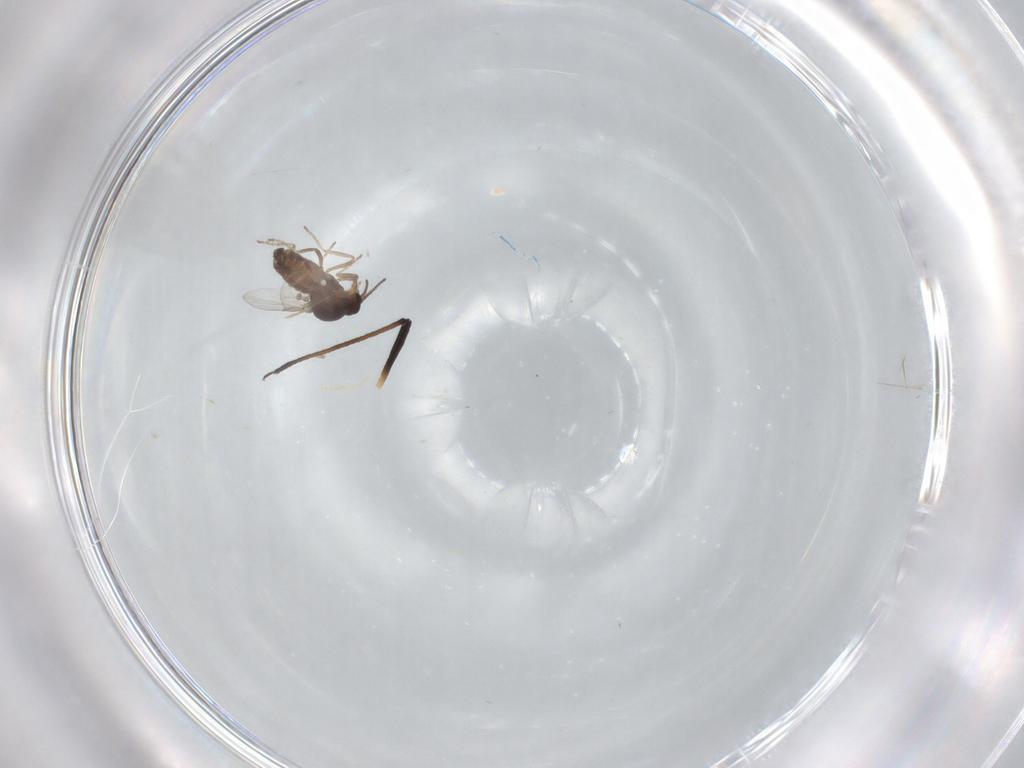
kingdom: Animalia
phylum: Arthropoda
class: Insecta
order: Diptera
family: Ceratopogonidae
